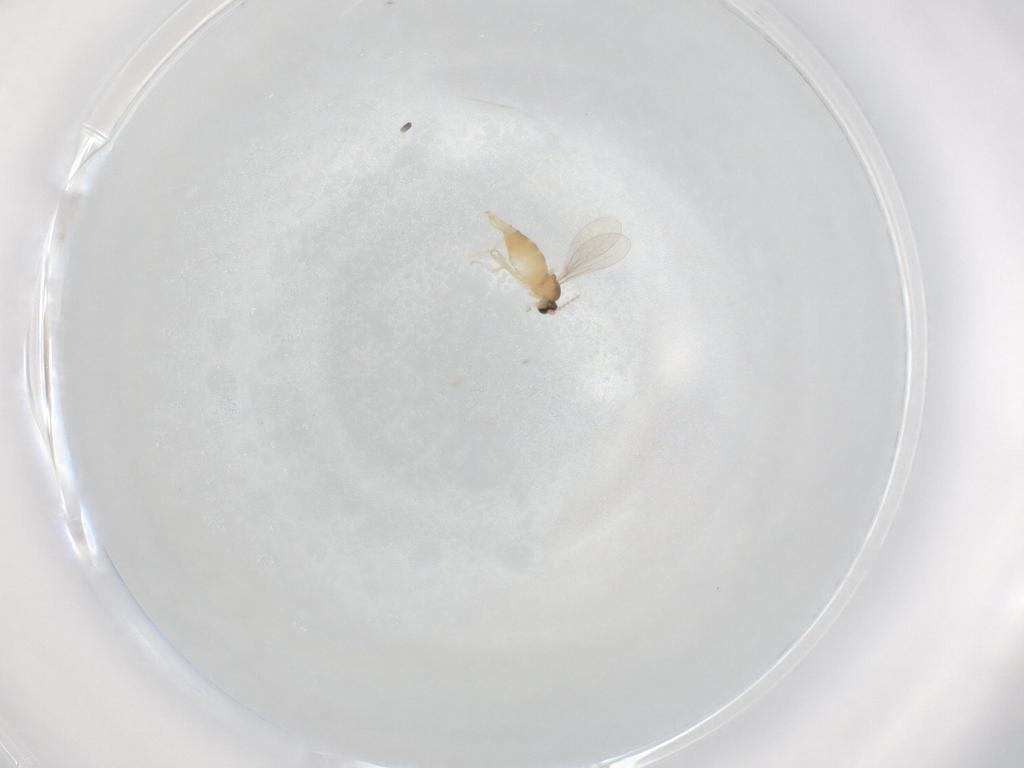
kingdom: Animalia
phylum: Arthropoda
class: Insecta
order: Diptera
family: Cecidomyiidae
